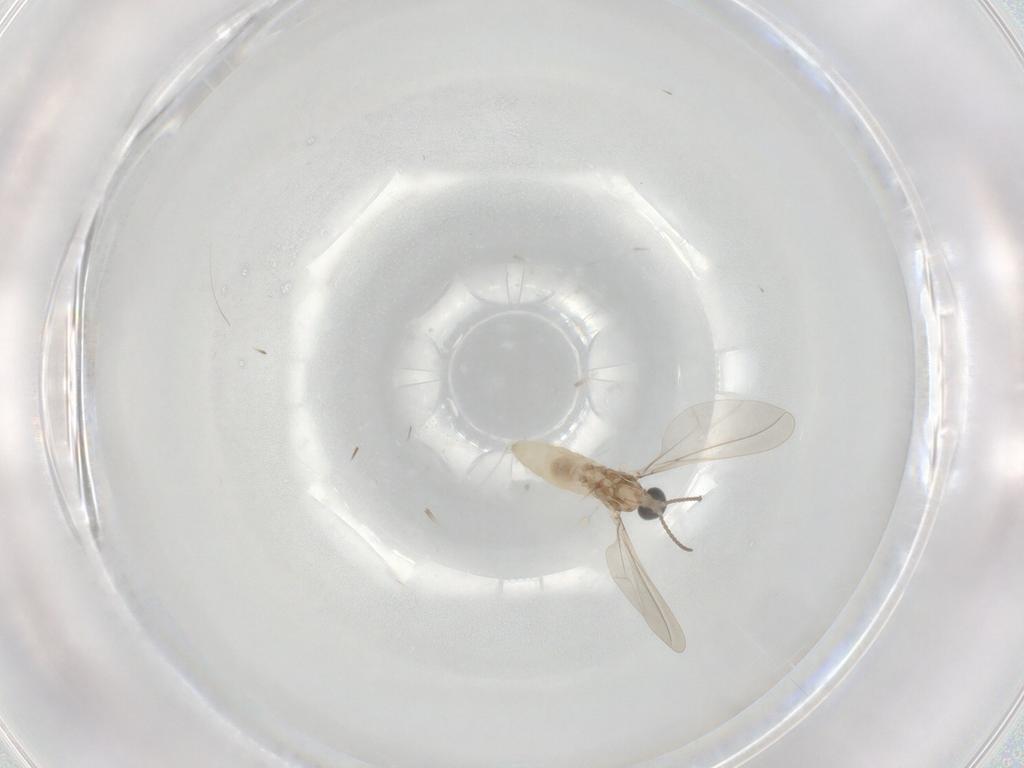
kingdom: Animalia
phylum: Arthropoda
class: Insecta
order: Diptera
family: Cecidomyiidae
